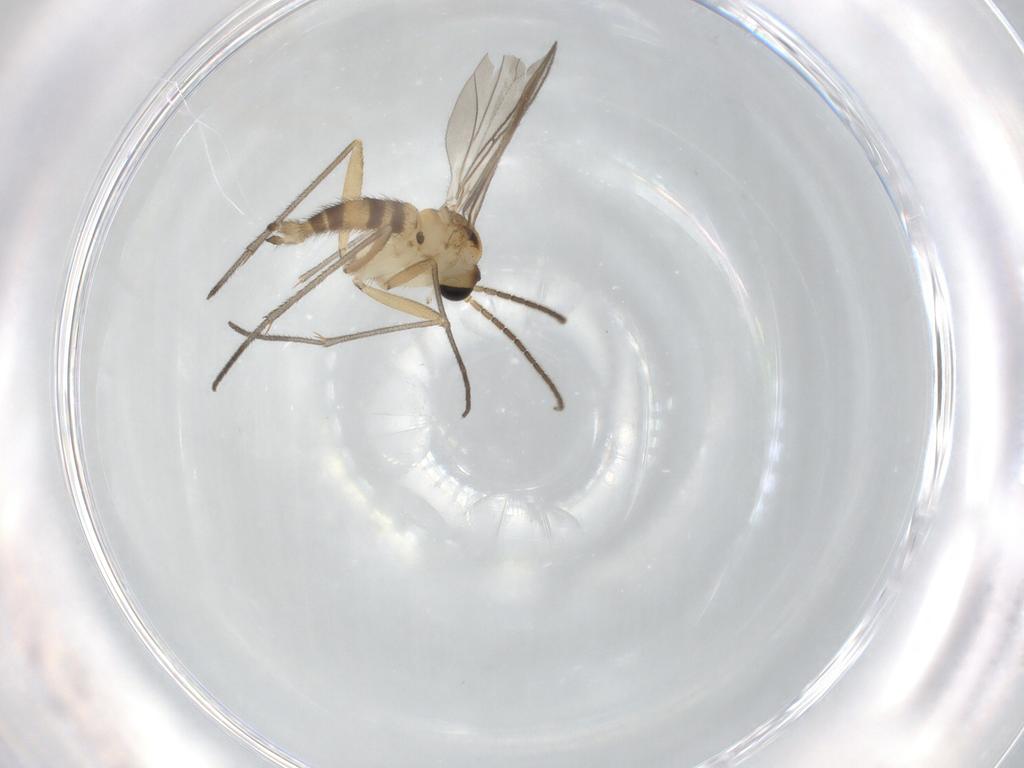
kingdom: Animalia
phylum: Arthropoda
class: Insecta
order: Diptera
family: Sciaridae
